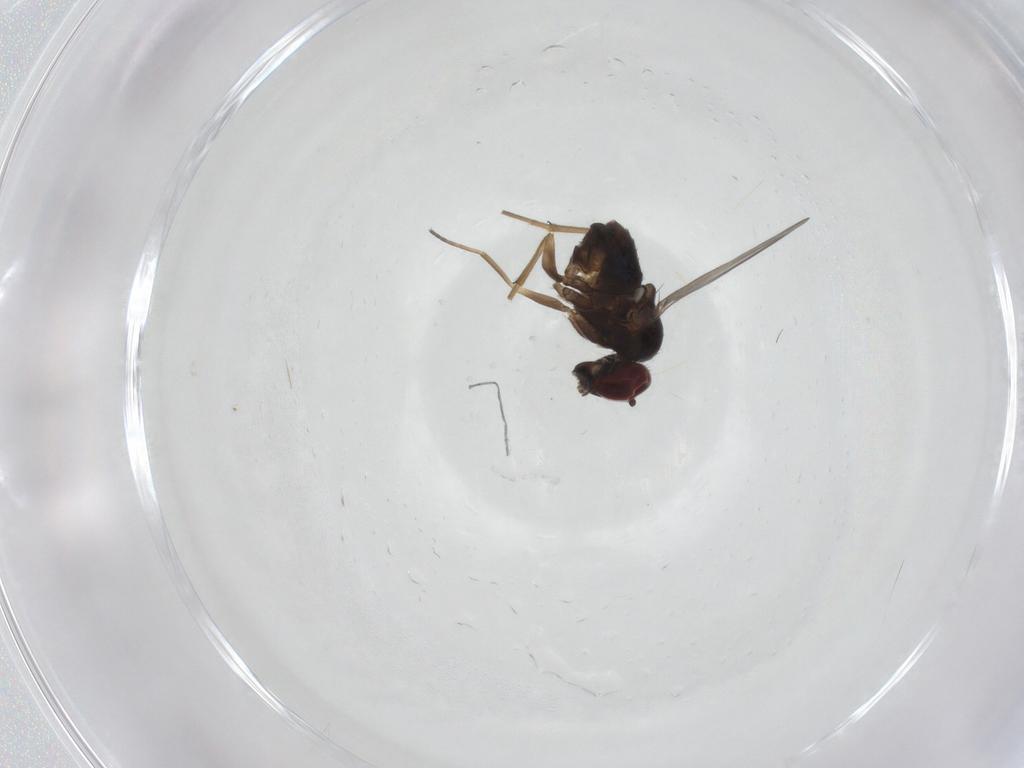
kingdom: Animalia
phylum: Arthropoda
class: Insecta
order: Diptera
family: Dolichopodidae
